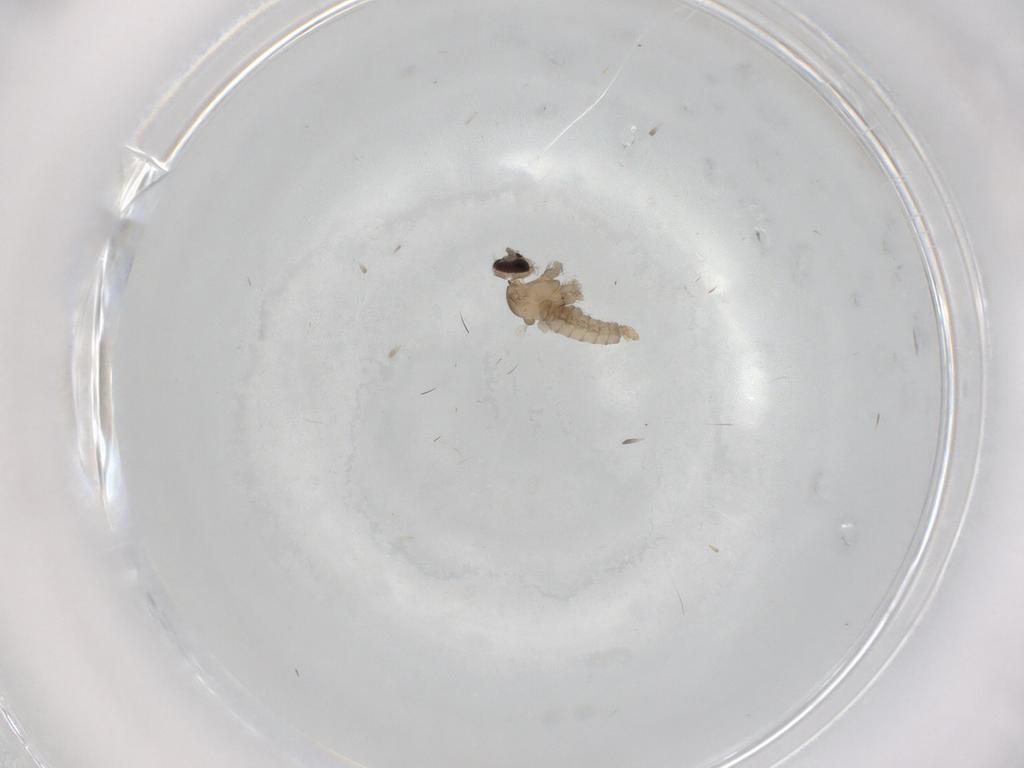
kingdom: Animalia
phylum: Arthropoda
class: Insecta
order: Diptera
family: Cecidomyiidae
